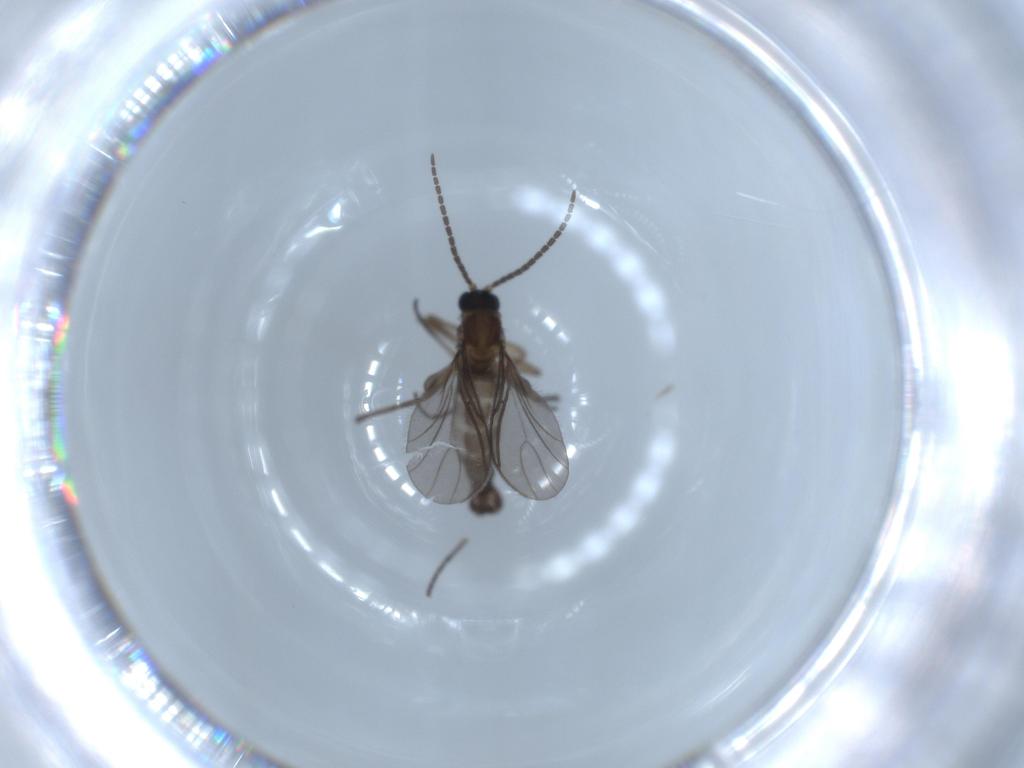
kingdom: Animalia
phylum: Arthropoda
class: Insecta
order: Diptera
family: Sciaridae
